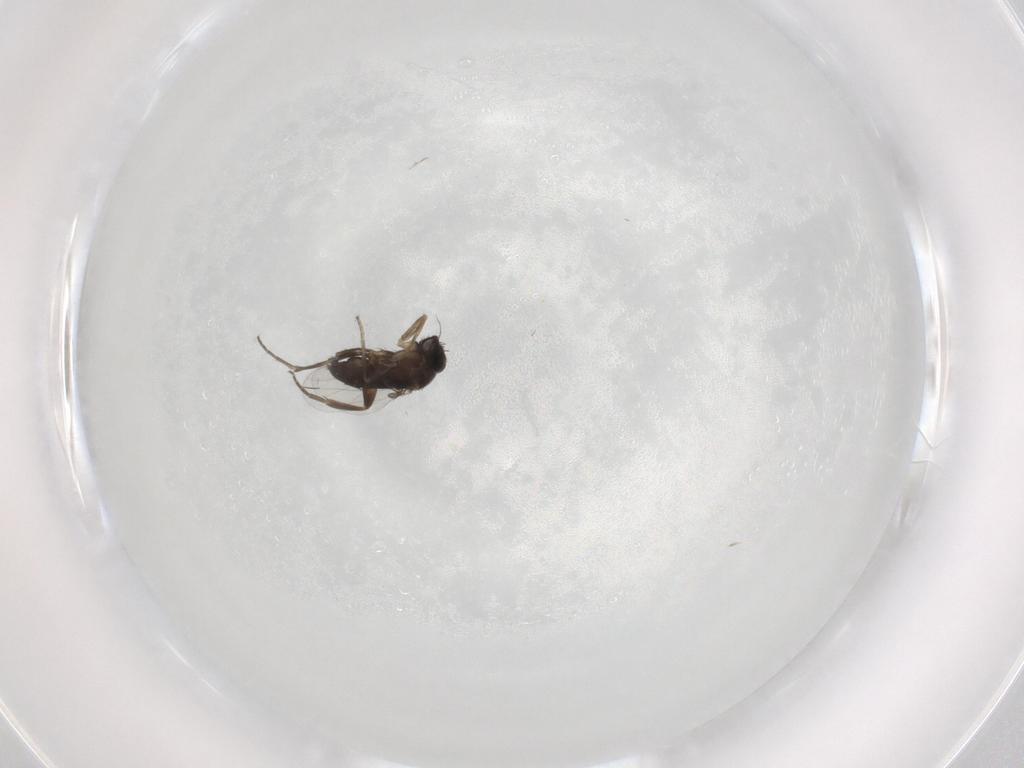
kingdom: Animalia
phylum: Arthropoda
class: Insecta
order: Diptera
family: Phoridae
